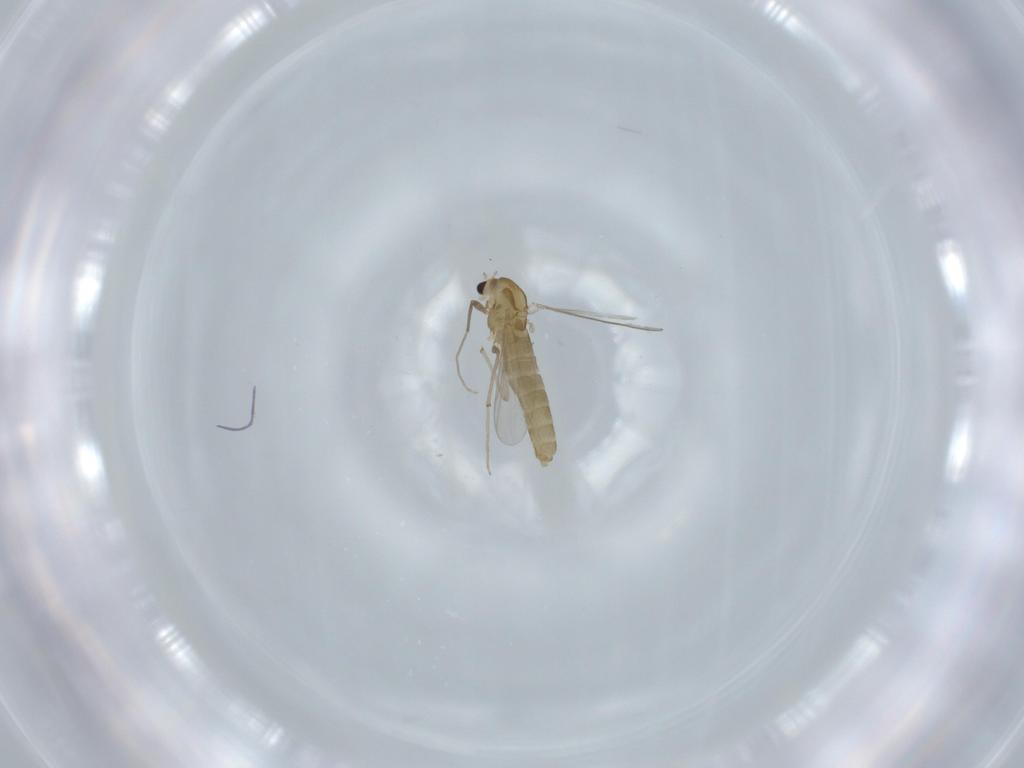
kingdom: Animalia
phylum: Arthropoda
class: Insecta
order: Diptera
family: Chironomidae
